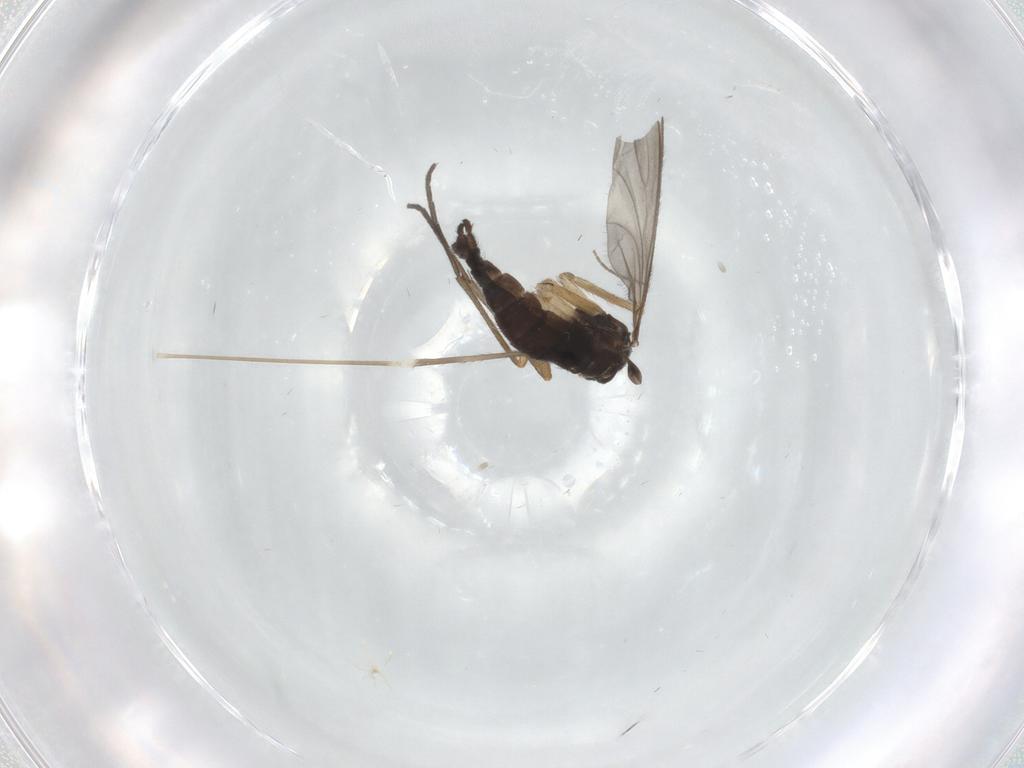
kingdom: Animalia
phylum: Arthropoda
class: Insecta
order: Diptera
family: Sciaridae
